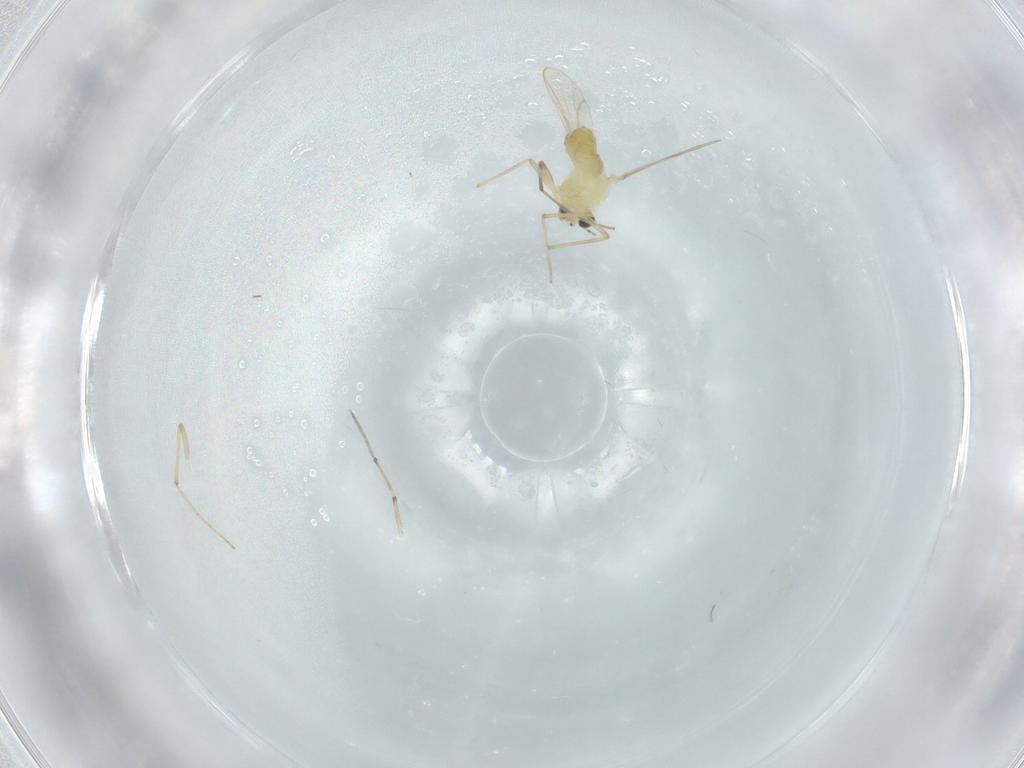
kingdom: Animalia
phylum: Arthropoda
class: Insecta
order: Diptera
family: Chironomidae
